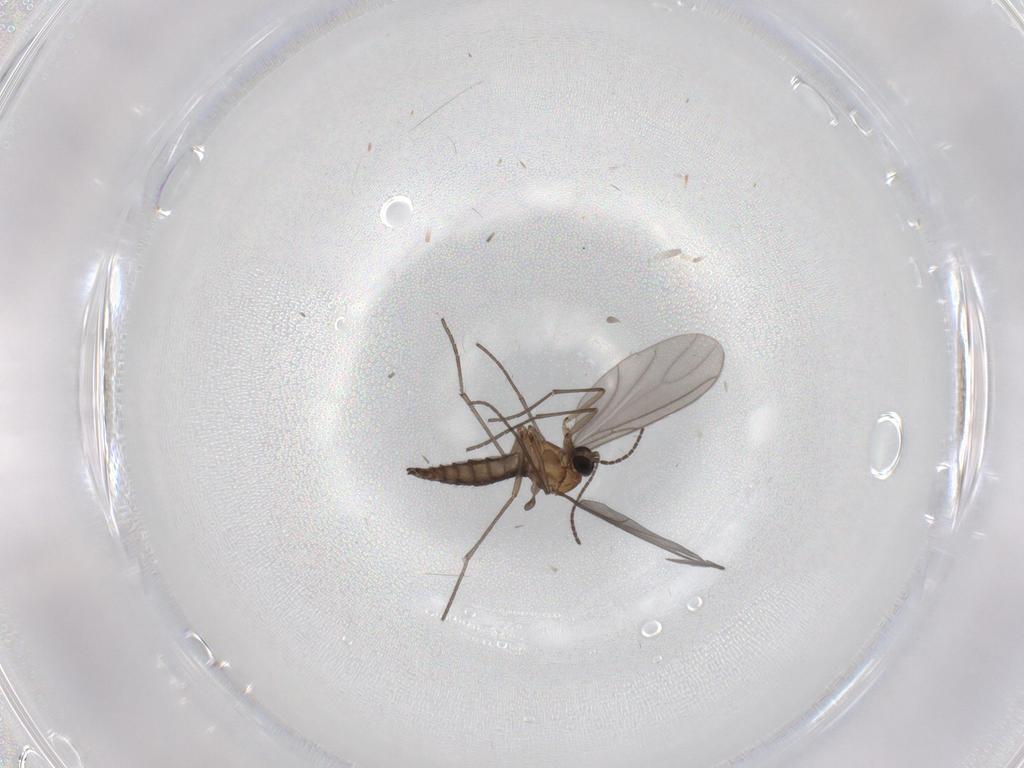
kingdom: Animalia
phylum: Arthropoda
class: Insecta
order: Diptera
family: Sciaridae
